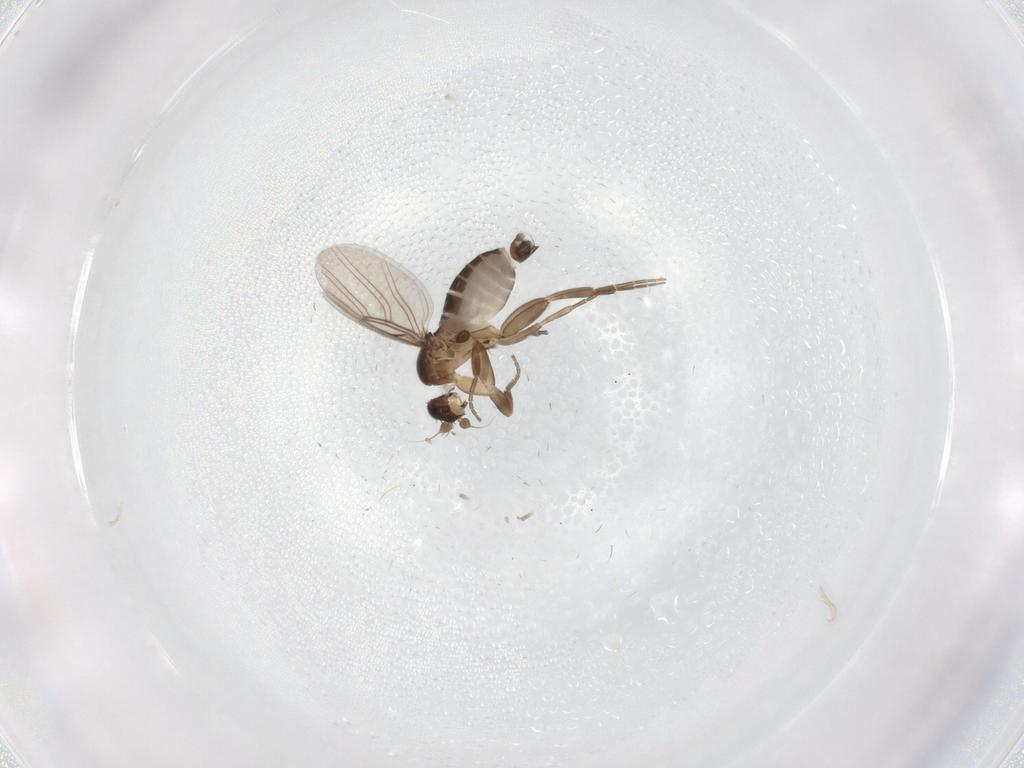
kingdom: Animalia
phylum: Arthropoda
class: Insecta
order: Diptera
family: Phoridae
